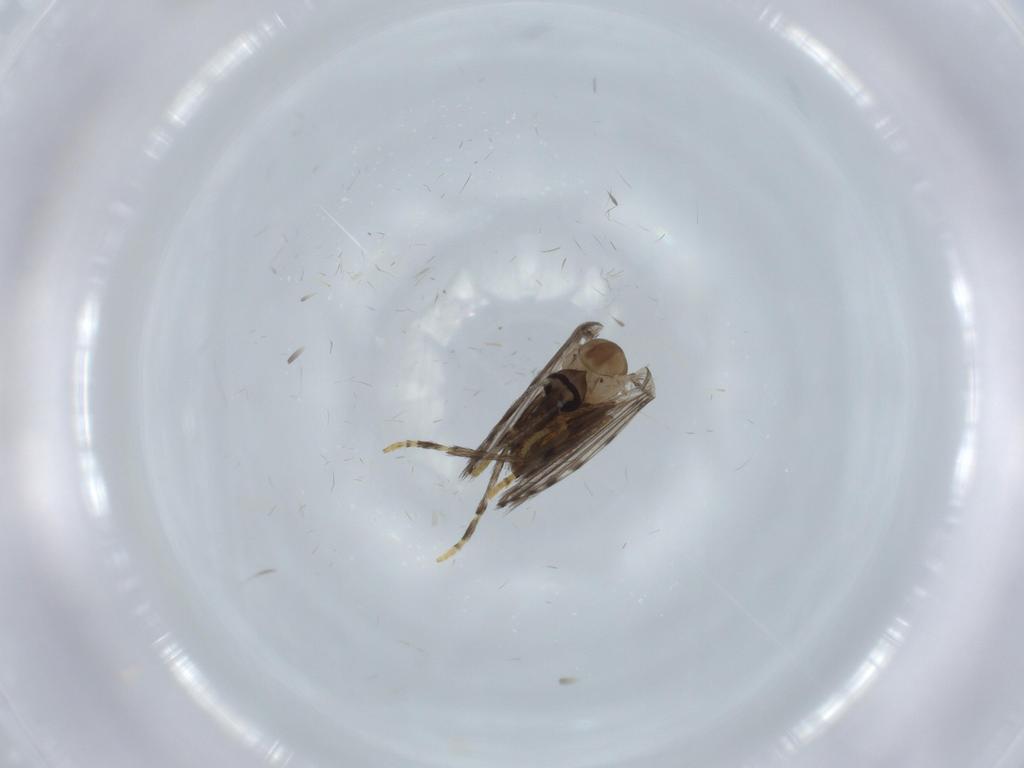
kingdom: Animalia
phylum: Arthropoda
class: Insecta
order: Diptera
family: Psychodidae
